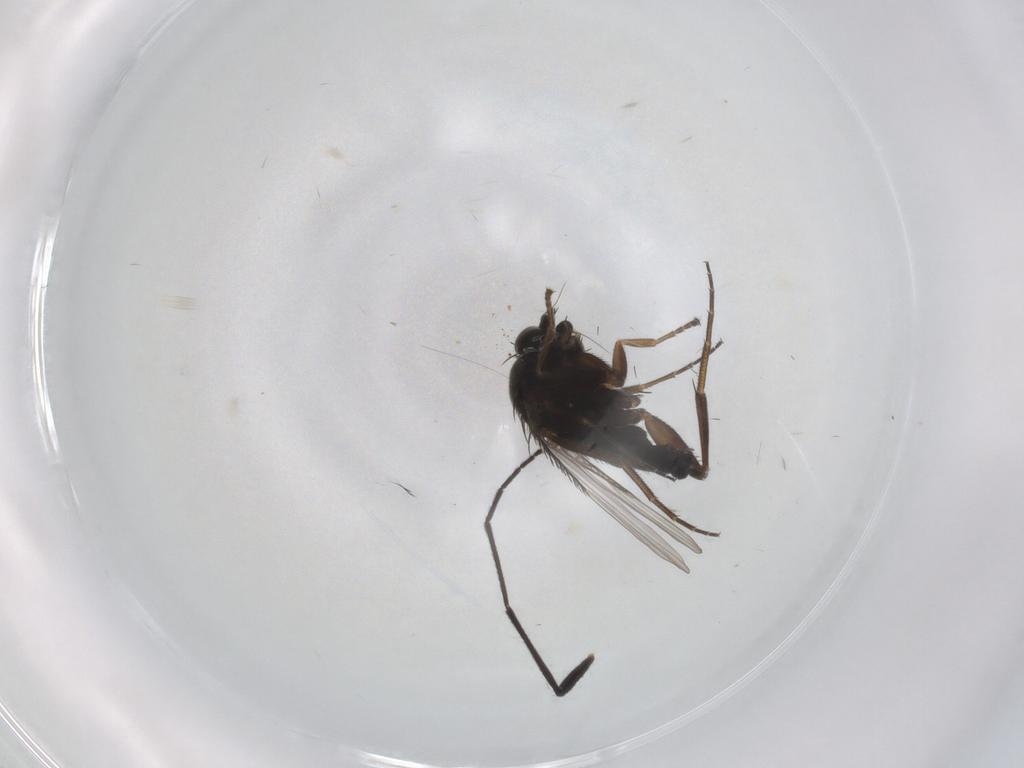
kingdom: Animalia
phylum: Arthropoda
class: Insecta
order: Diptera
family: Phoridae
